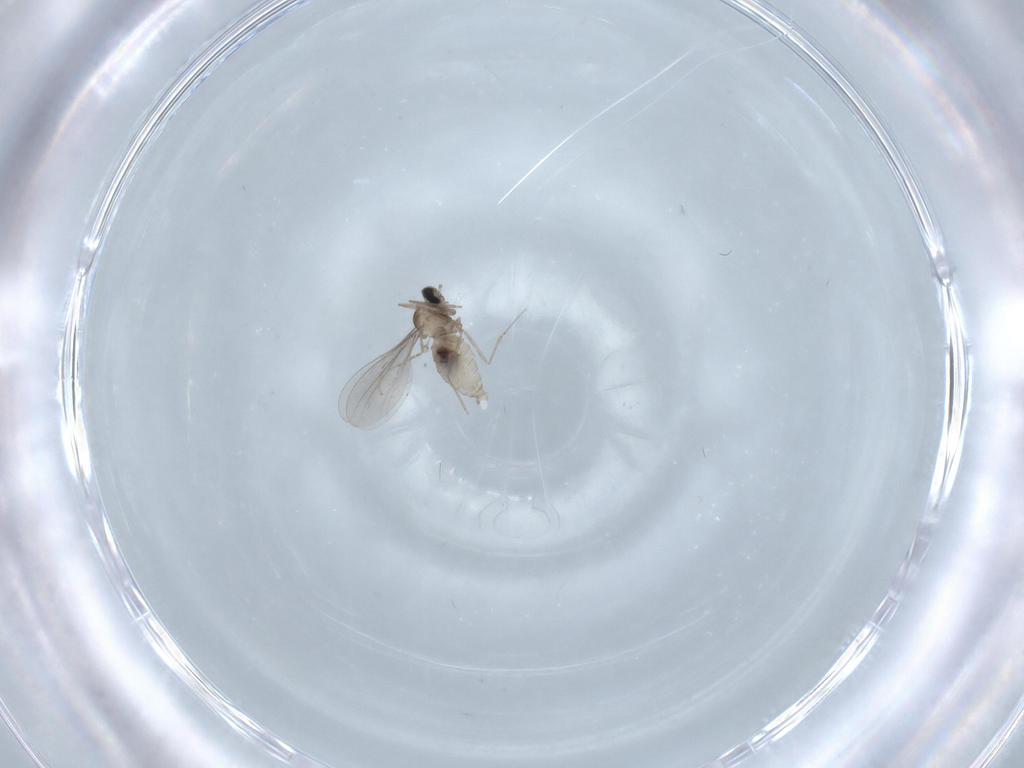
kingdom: Animalia
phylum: Arthropoda
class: Insecta
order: Diptera
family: Cecidomyiidae
